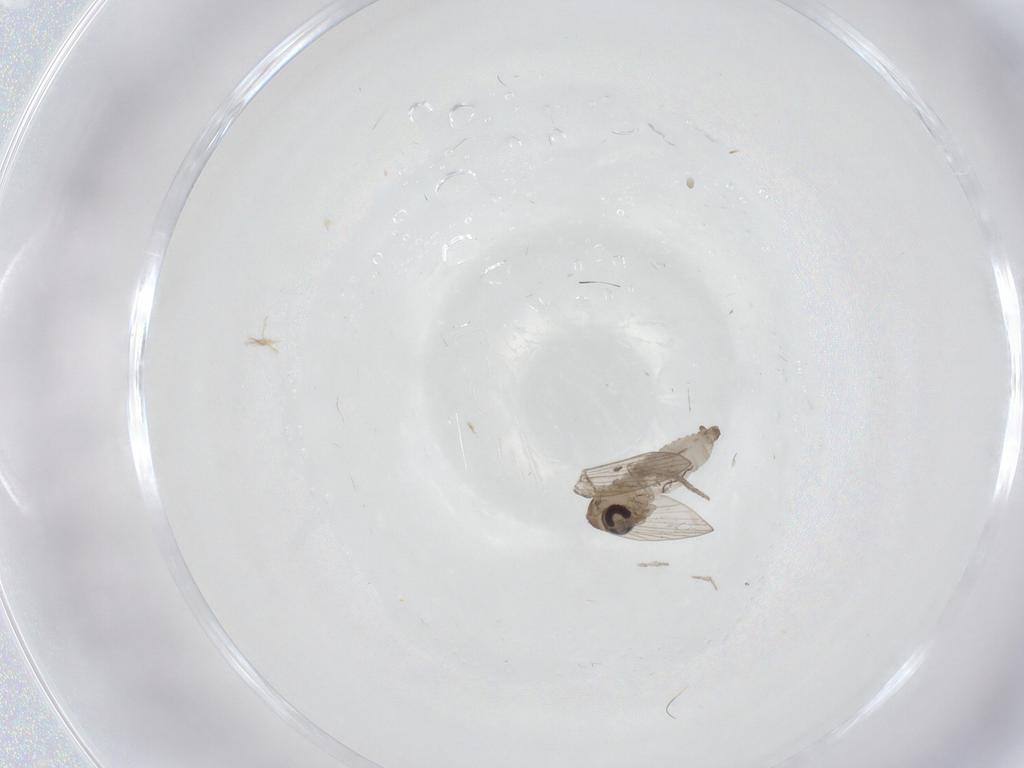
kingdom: Animalia
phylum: Arthropoda
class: Insecta
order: Diptera
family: Psychodidae
